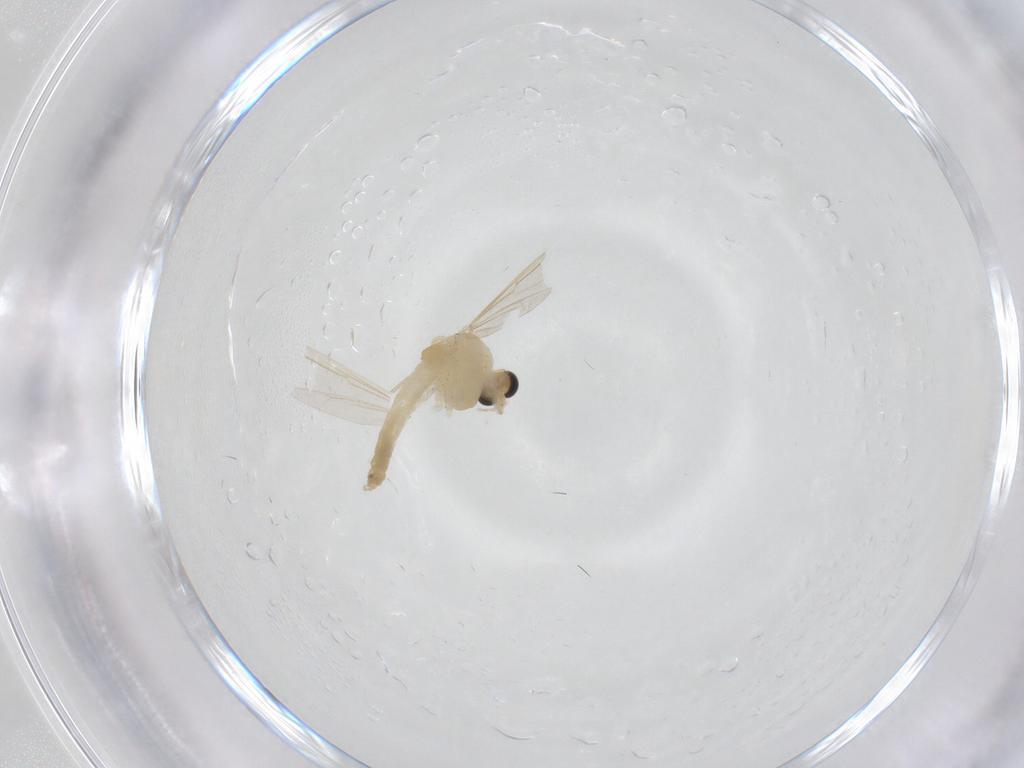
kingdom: Animalia
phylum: Arthropoda
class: Insecta
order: Diptera
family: Chironomidae
